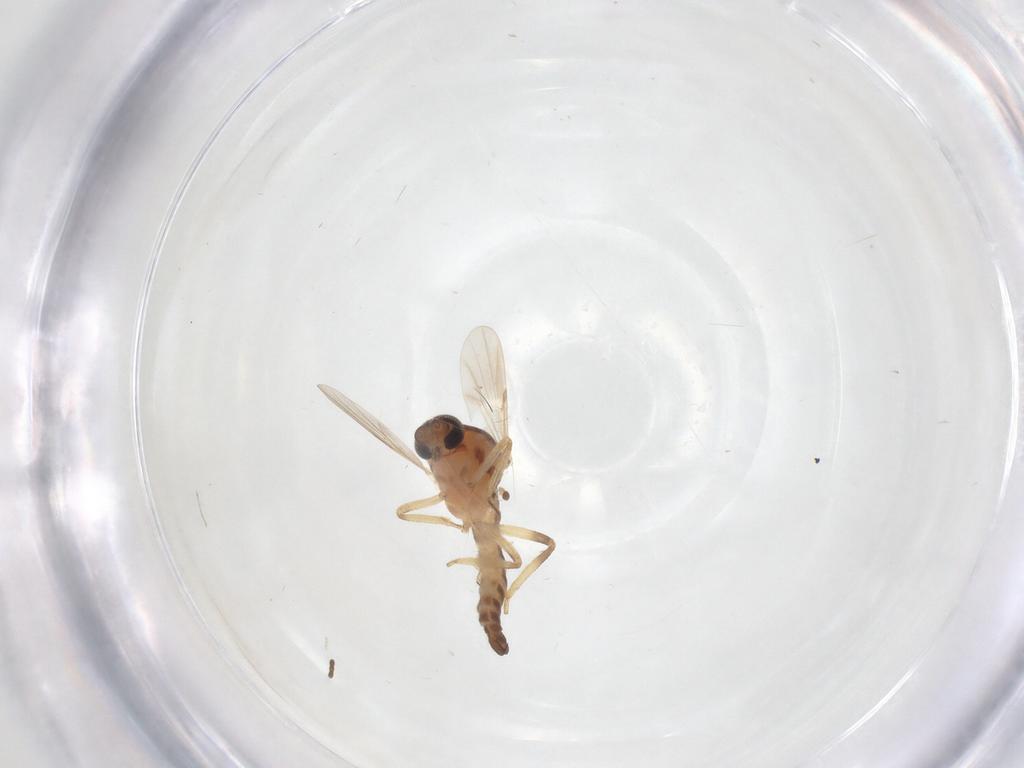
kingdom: Animalia
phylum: Arthropoda
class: Insecta
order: Diptera
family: Ceratopogonidae
